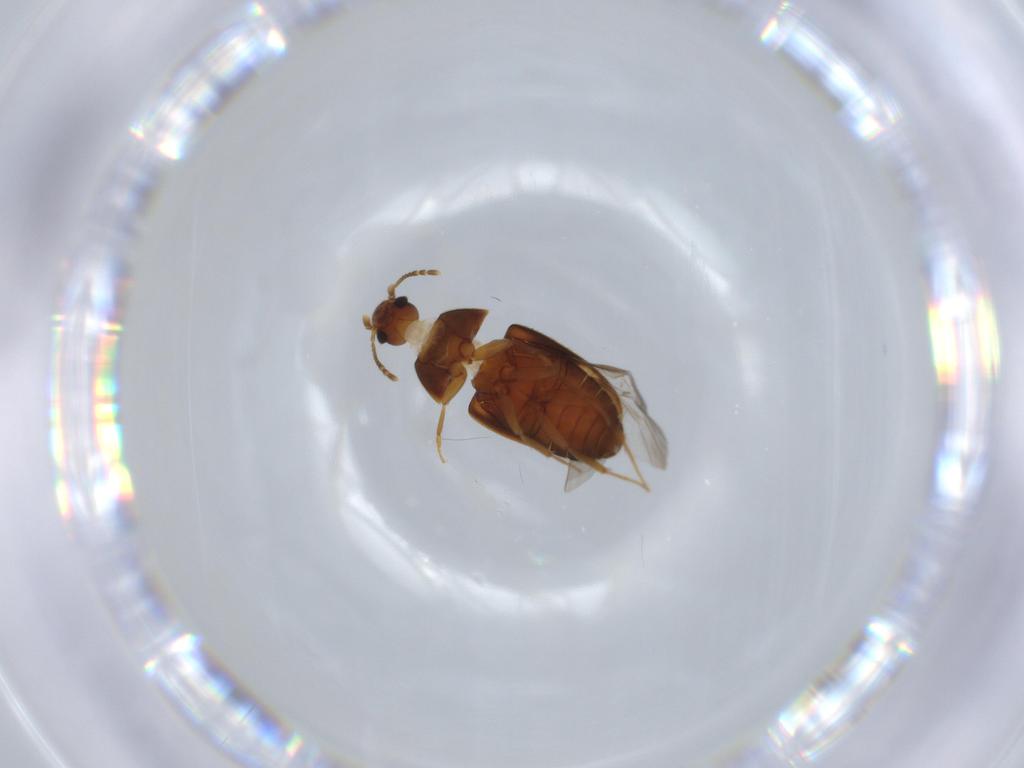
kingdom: Animalia
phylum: Arthropoda
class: Insecta
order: Coleoptera
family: Mycetophagidae
